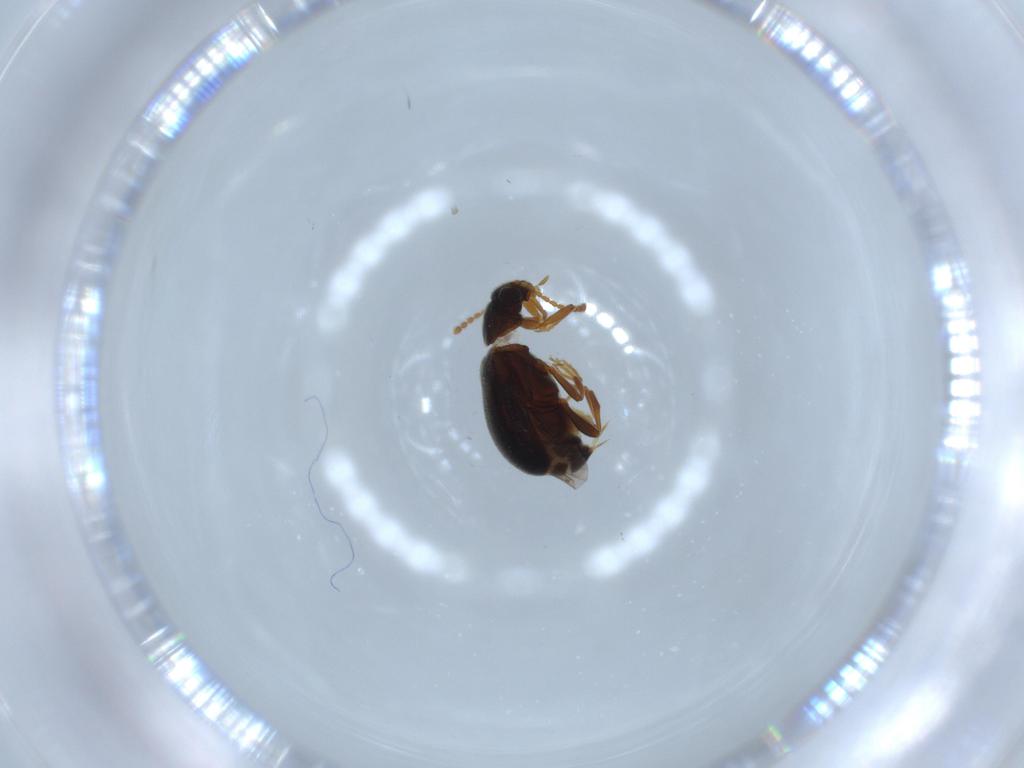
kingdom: Animalia
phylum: Arthropoda
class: Insecta
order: Coleoptera
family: Aderidae
